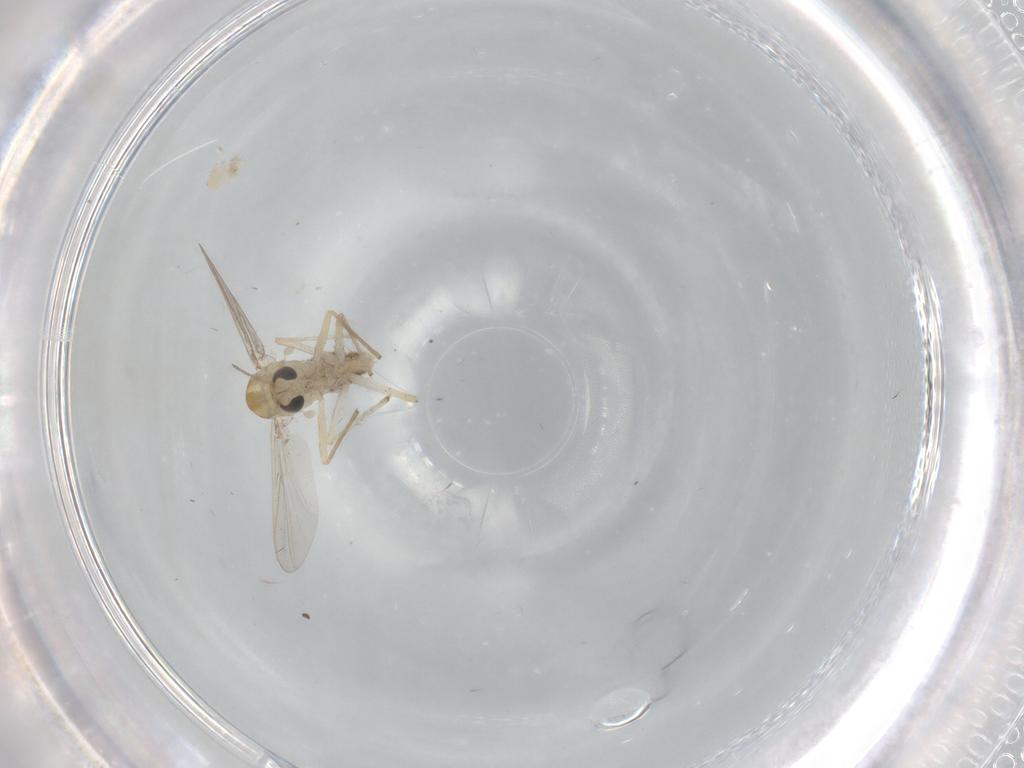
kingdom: Animalia
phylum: Arthropoda
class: Insecta
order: Diptera
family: Chironomidae
